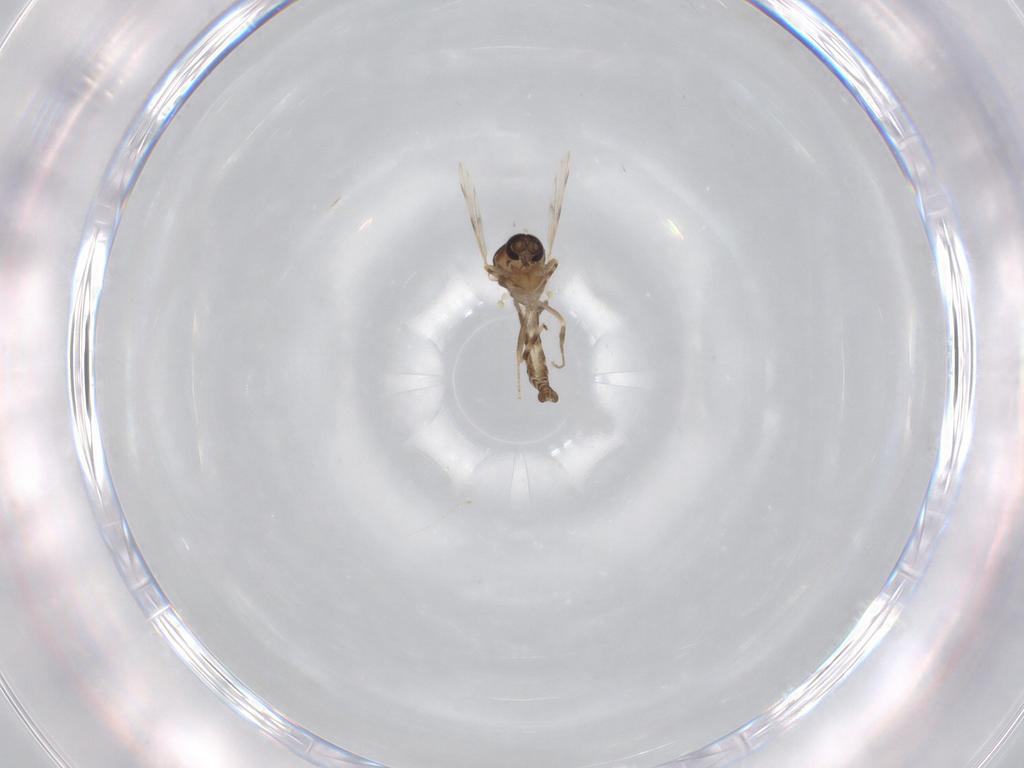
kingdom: Animalia
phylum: Arthropoda
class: Insecta
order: Diptera
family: Ceratopogonidae
